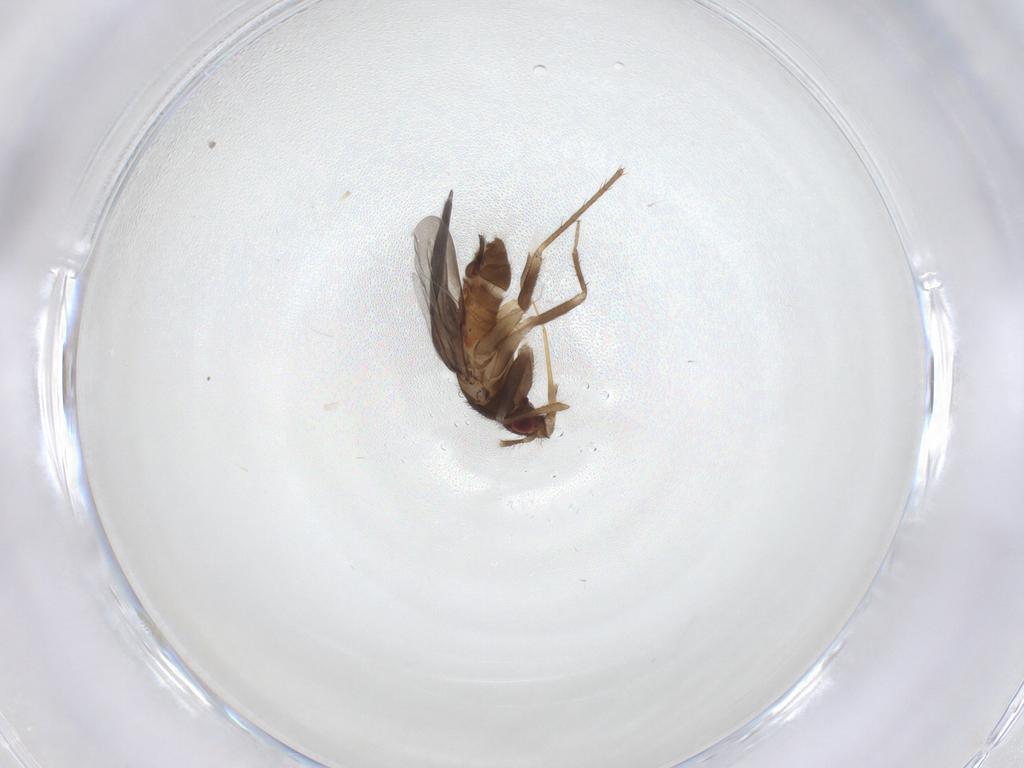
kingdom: Animalia
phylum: Arthropoda
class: Insecta
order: Hemiptera
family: Ceratocombidae
